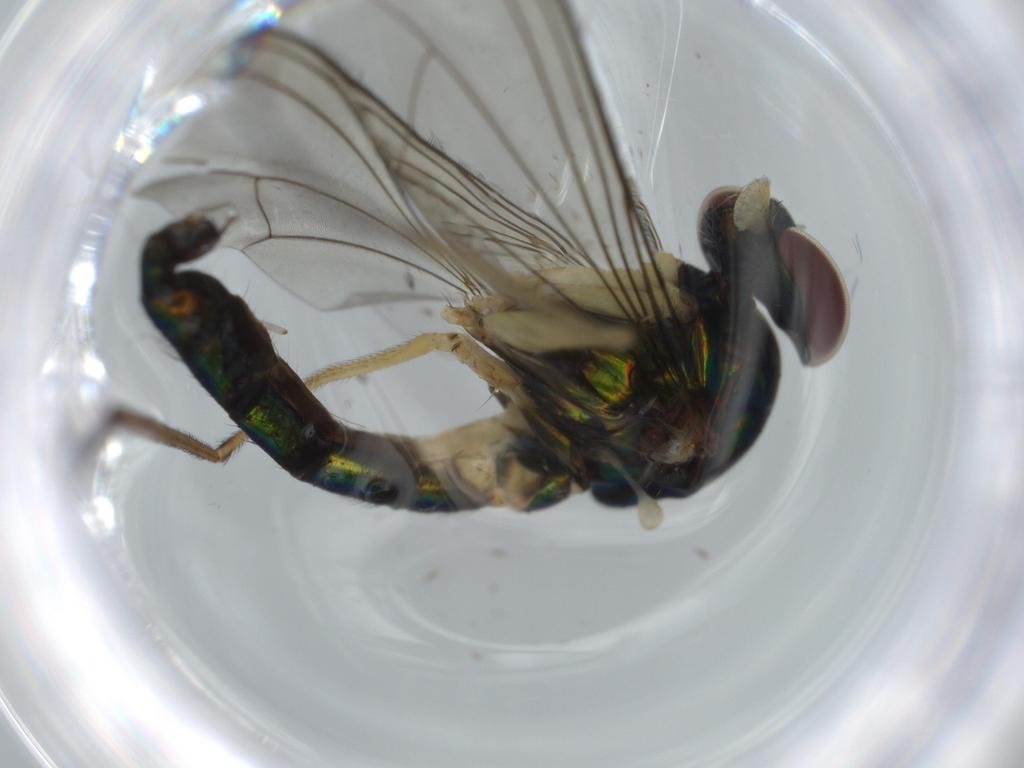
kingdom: Animalia
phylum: Arthropoda
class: Insecta
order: Diptera
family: Dolichopodidae
